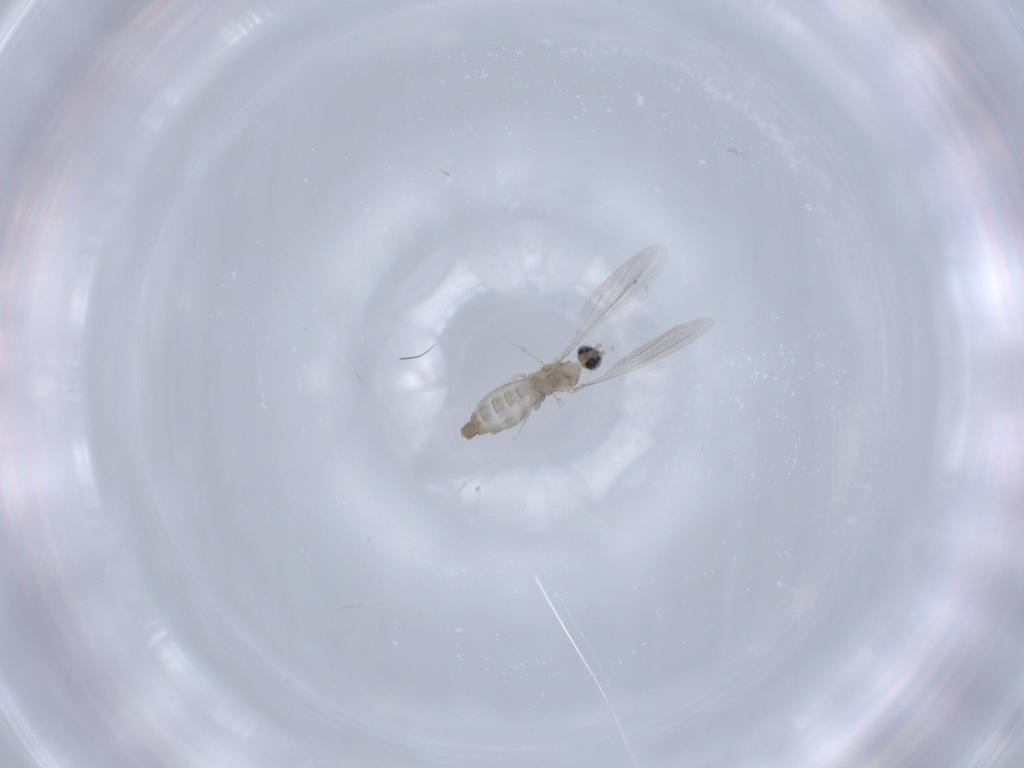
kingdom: Animalia
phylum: Arthropoda
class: Insecta
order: Diptera
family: Cecidomyiidae
